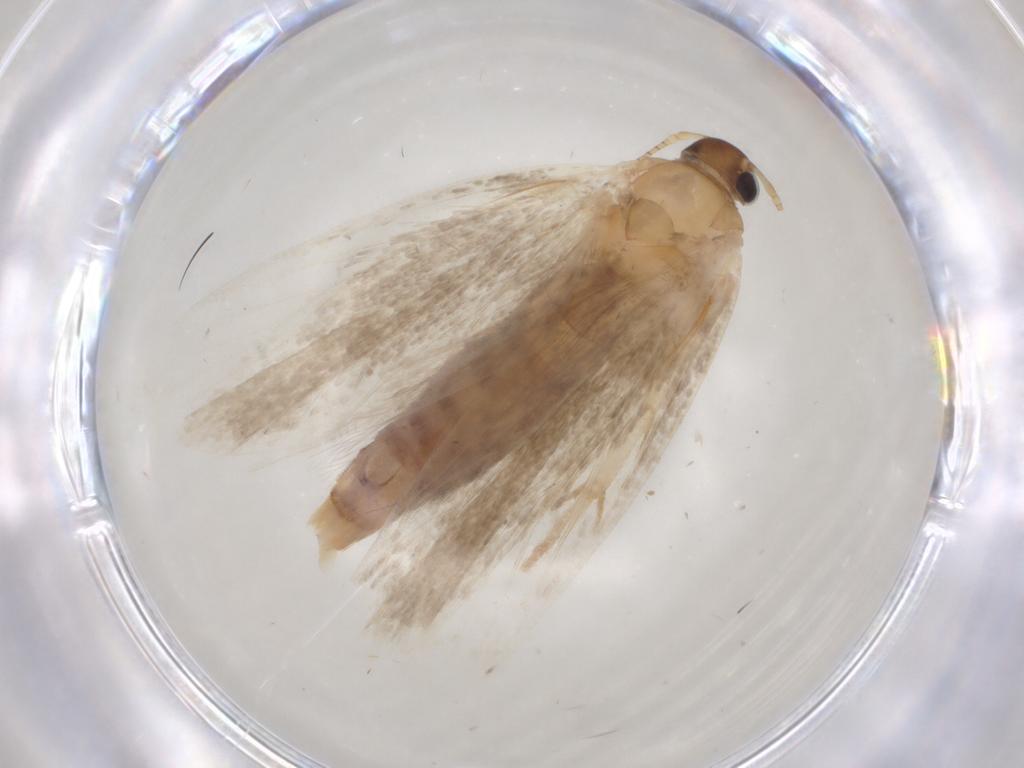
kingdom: Animalia
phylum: Arthropoda
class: Insecta
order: Lepidoptera
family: Gelechiidae
